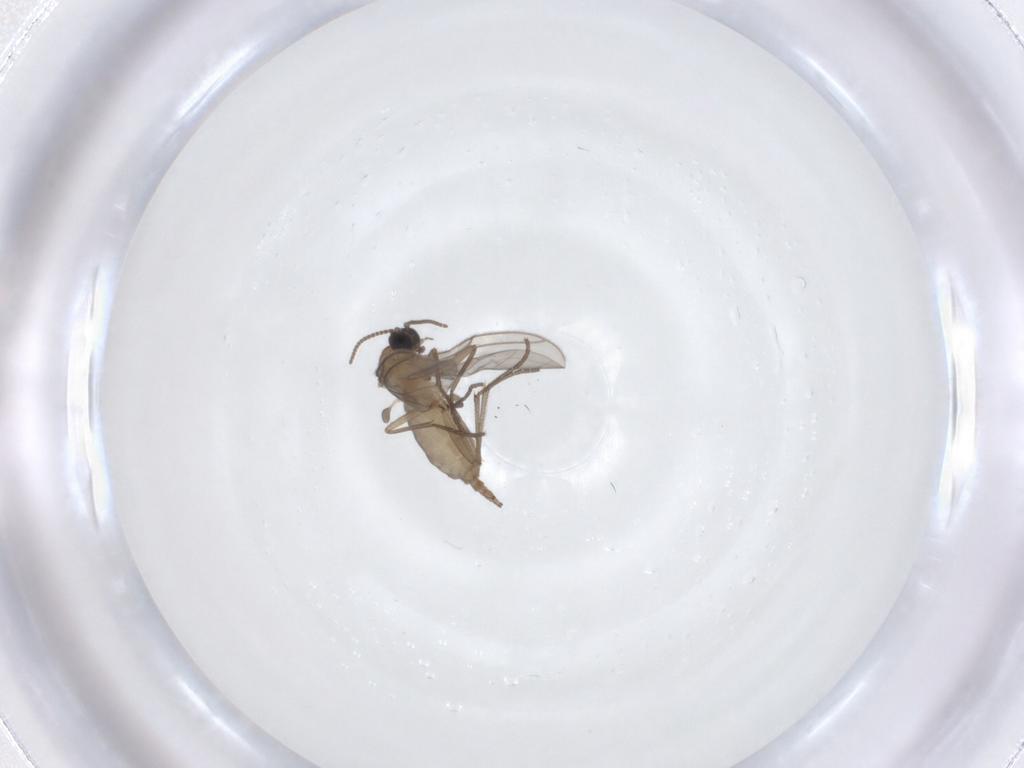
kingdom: Animalia
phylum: Arthropoda
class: Insecta
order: Diptera
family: Sciaridae
